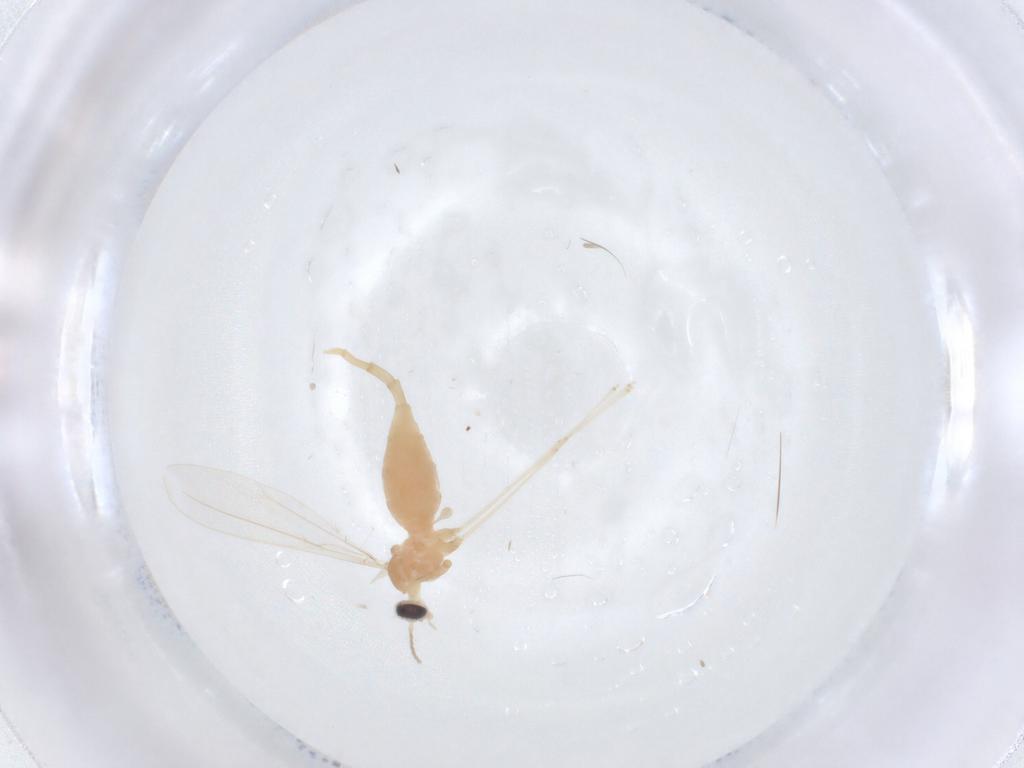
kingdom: Animalia
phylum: Arthropoda
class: Insecta
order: Diptera
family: Cecidomyiidae
